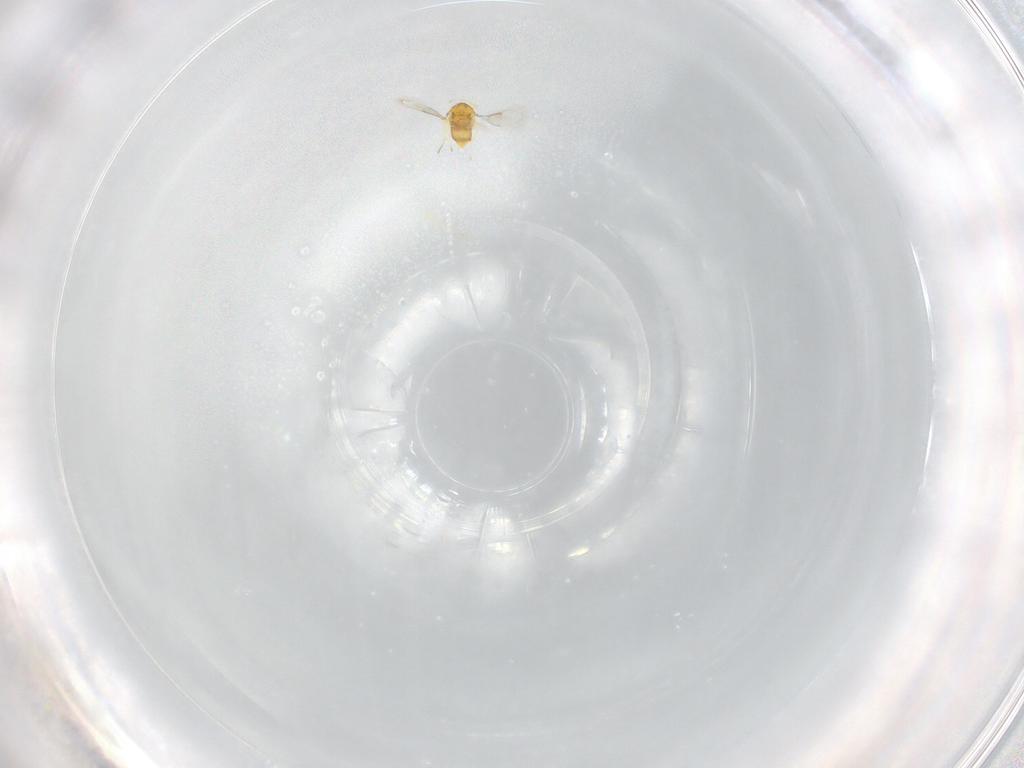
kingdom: Animalia
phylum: Arthropoda
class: Insecta
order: Hymenoptera
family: Aphelinidae
